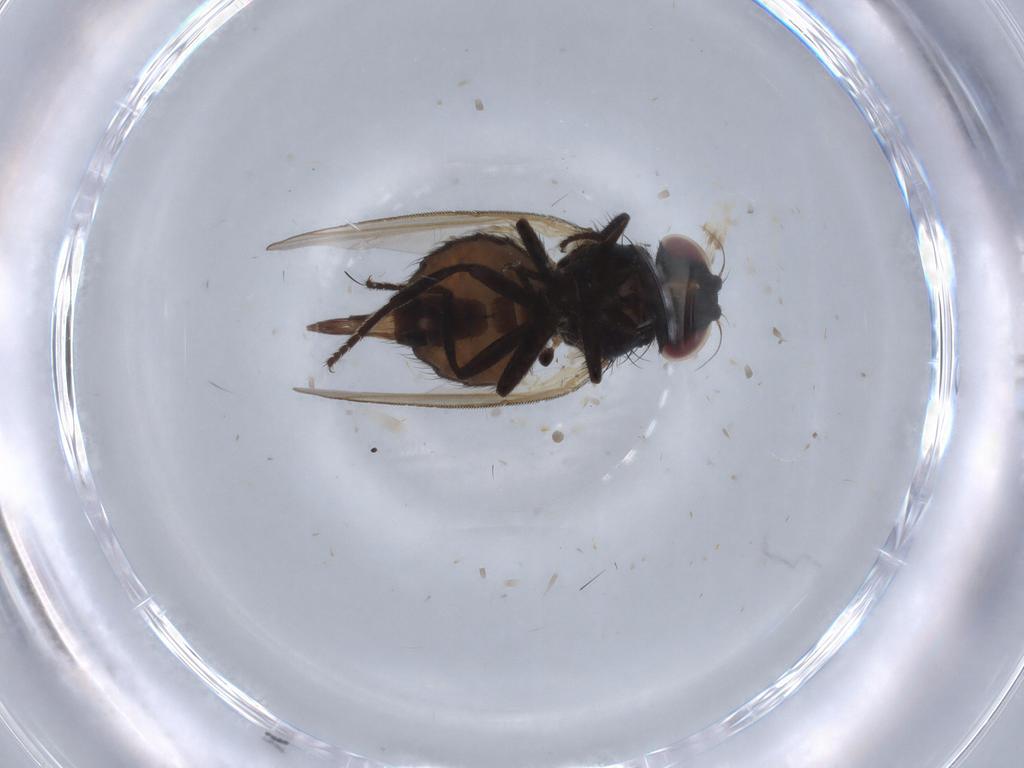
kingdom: Animalia
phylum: Arthropoda
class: Insecta
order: Diptera
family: Lonchaeidae
